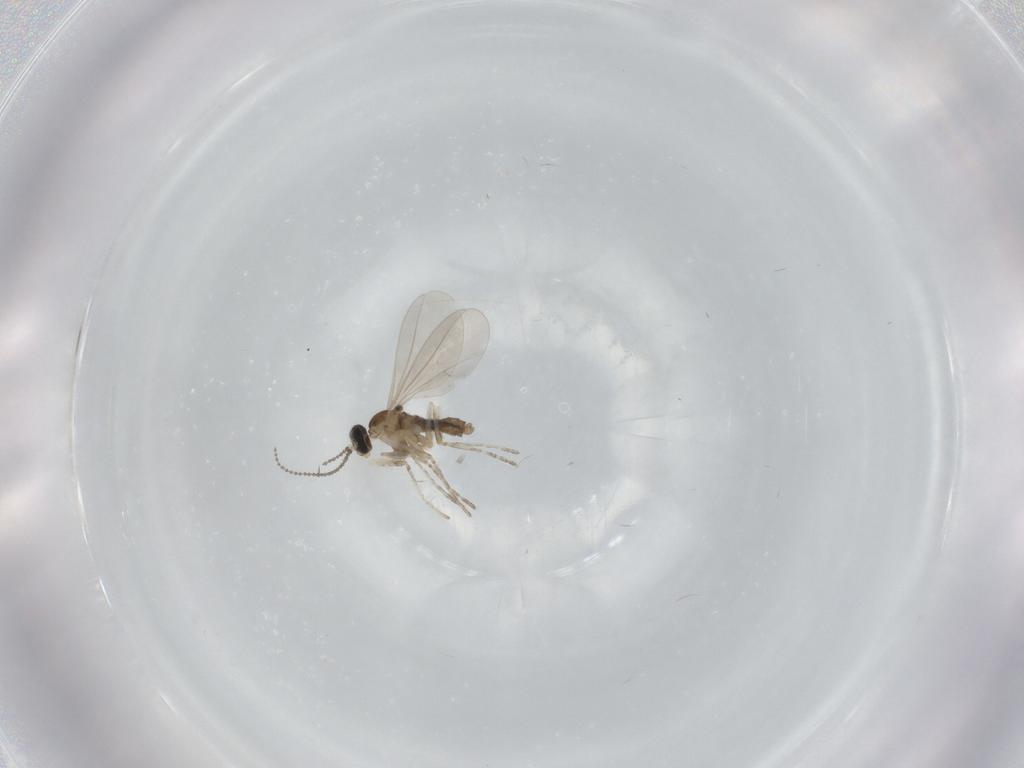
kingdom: Animalia
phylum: Arthropoda
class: Insecta
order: Diptera
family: Cecidomyiidae
